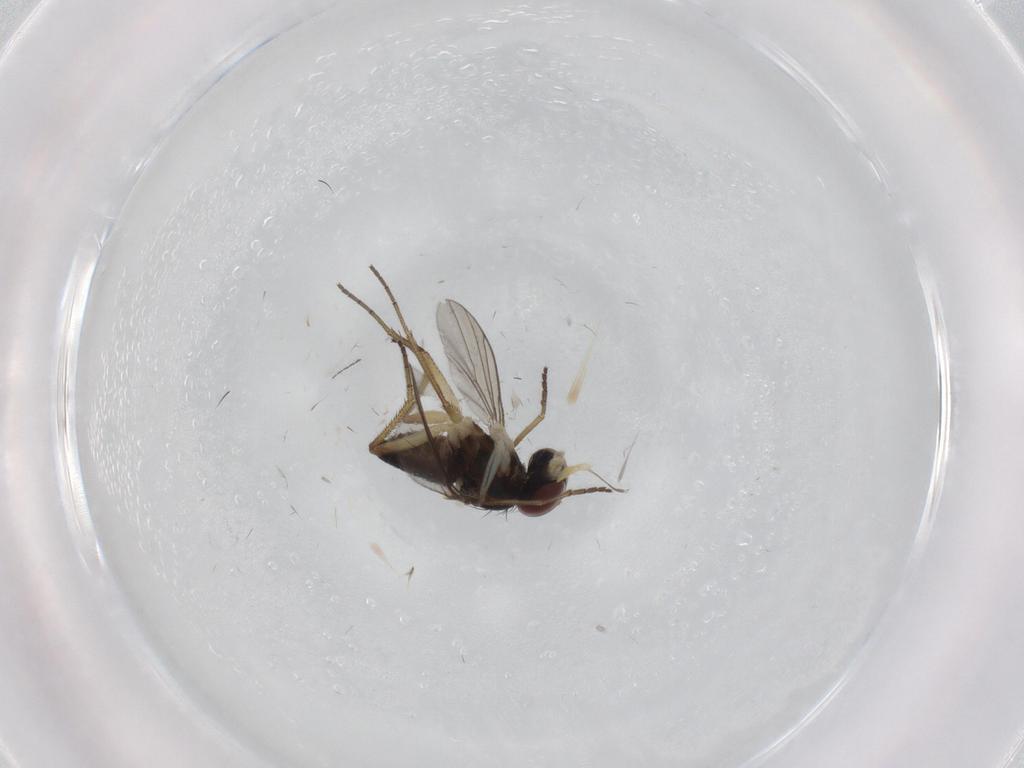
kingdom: Animalia
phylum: Arthropoda
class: Insecta
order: Diptera
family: Dolichopodidae
